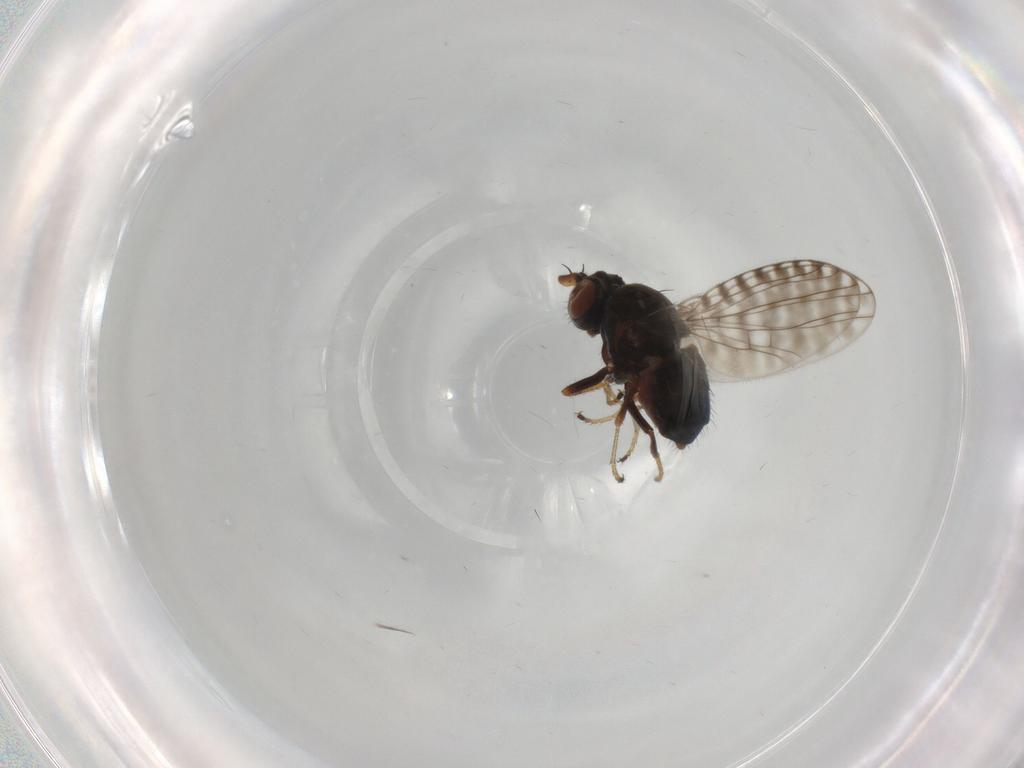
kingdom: Animalia
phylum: Arthropoda
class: Insecta
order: Diptera
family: Ephydridae
